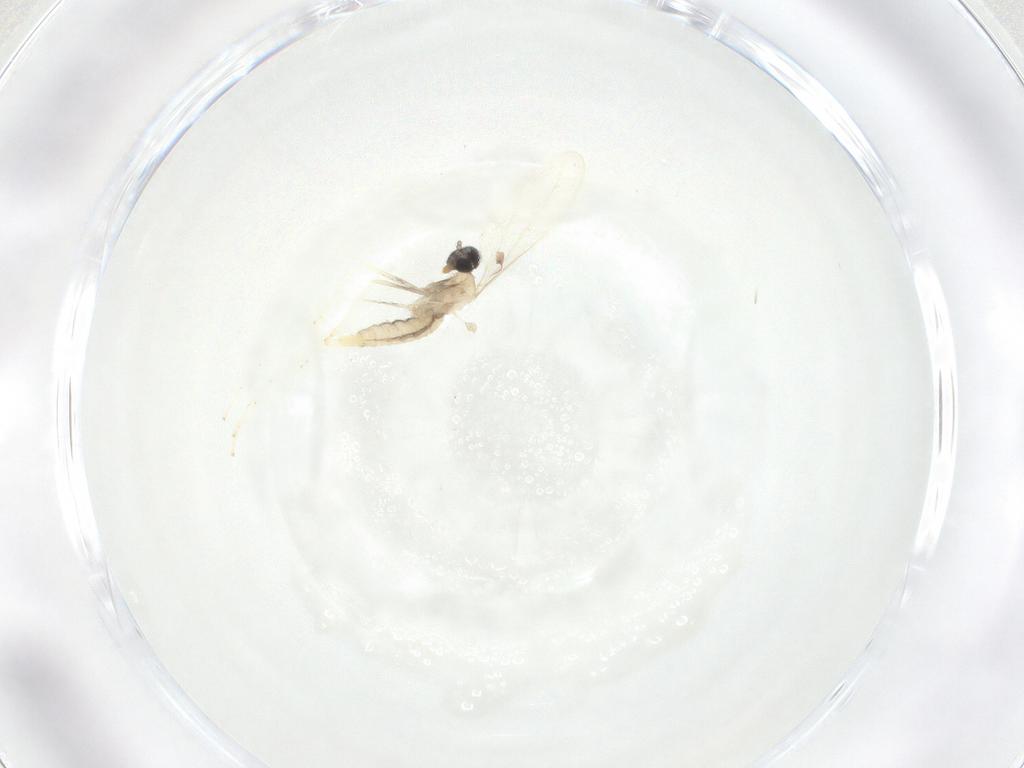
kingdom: Animalia
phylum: Arthropoda
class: Insecta
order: Diptera
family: Cecidomyiidae
